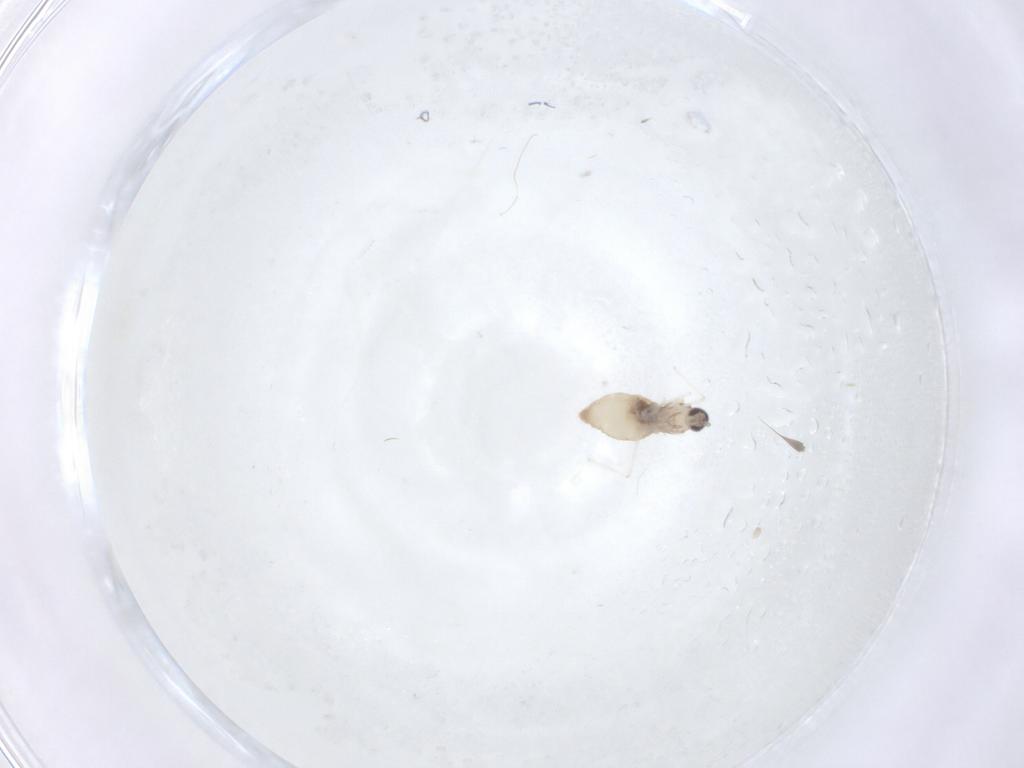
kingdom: Animalia
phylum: Arthropoda
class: Insecta
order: Diptera
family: Cecidomyiidae
